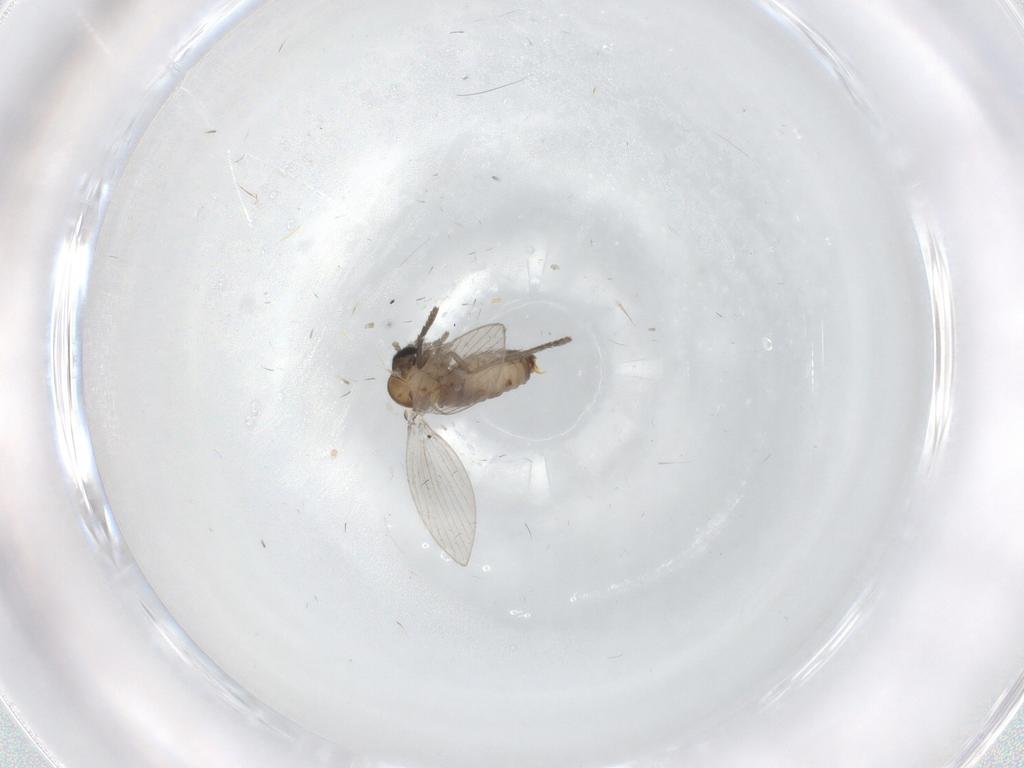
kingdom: Animalia
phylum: Arthropoda
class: Insecta
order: Diptera
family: Psychodidae
